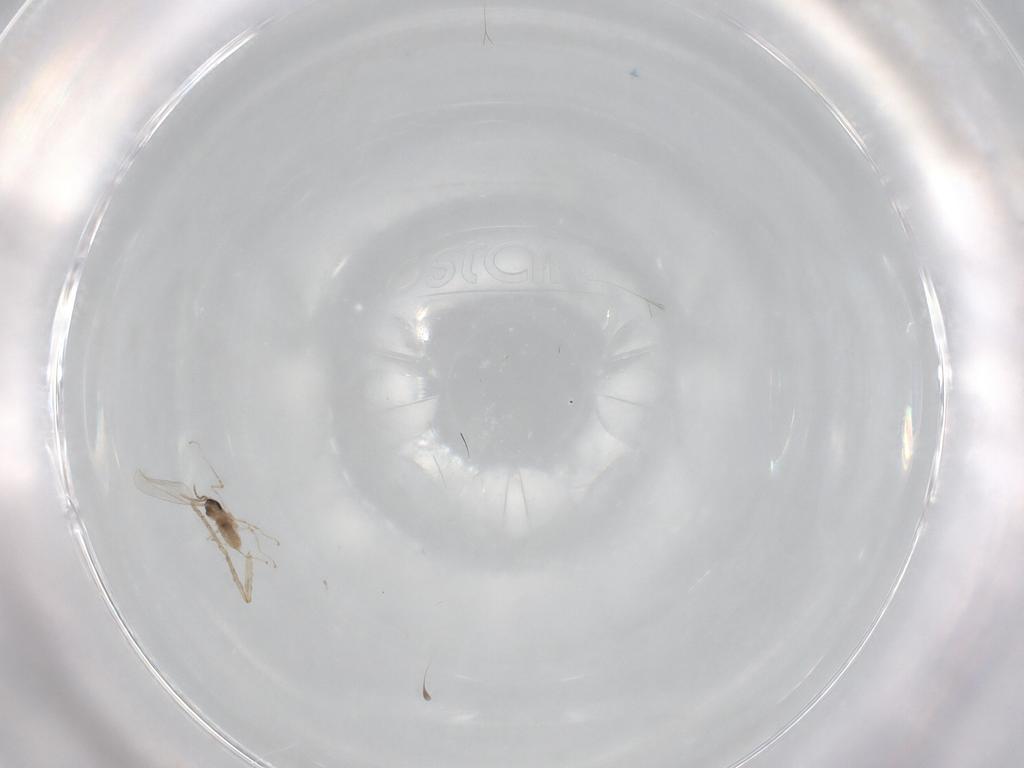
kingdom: Animalia
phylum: Arthropoda
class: Insecta
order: Diptera
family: Psychodidae
